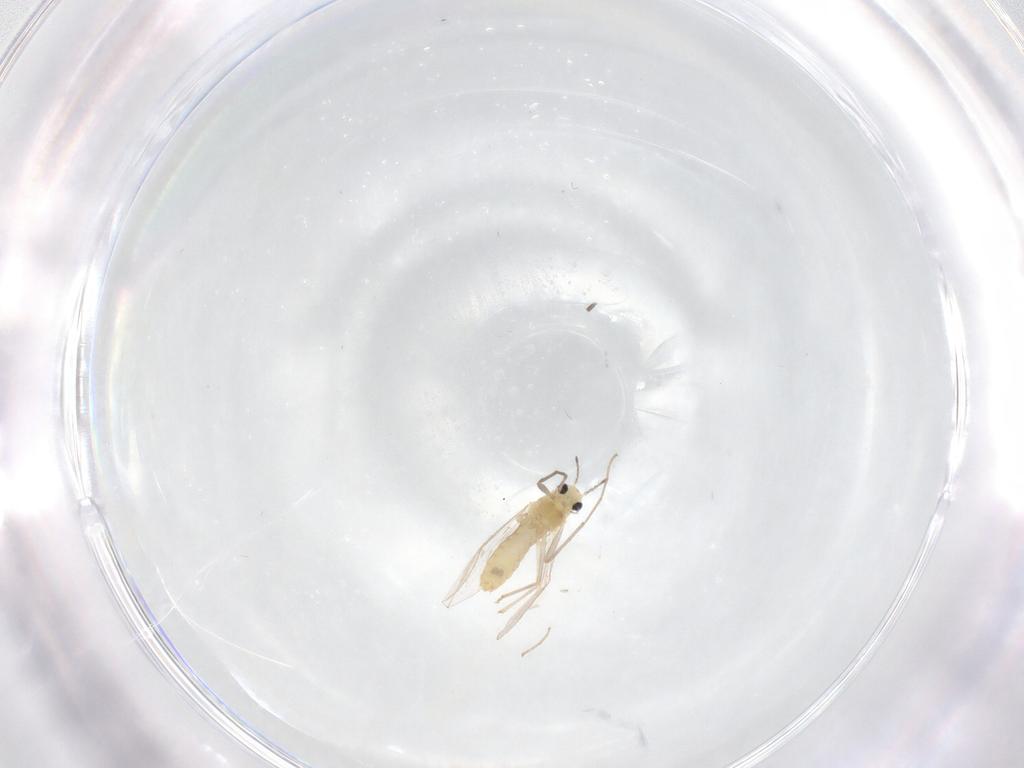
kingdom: Animalia
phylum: Arthropoda
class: Insecta
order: Diptera
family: Chironomidae
